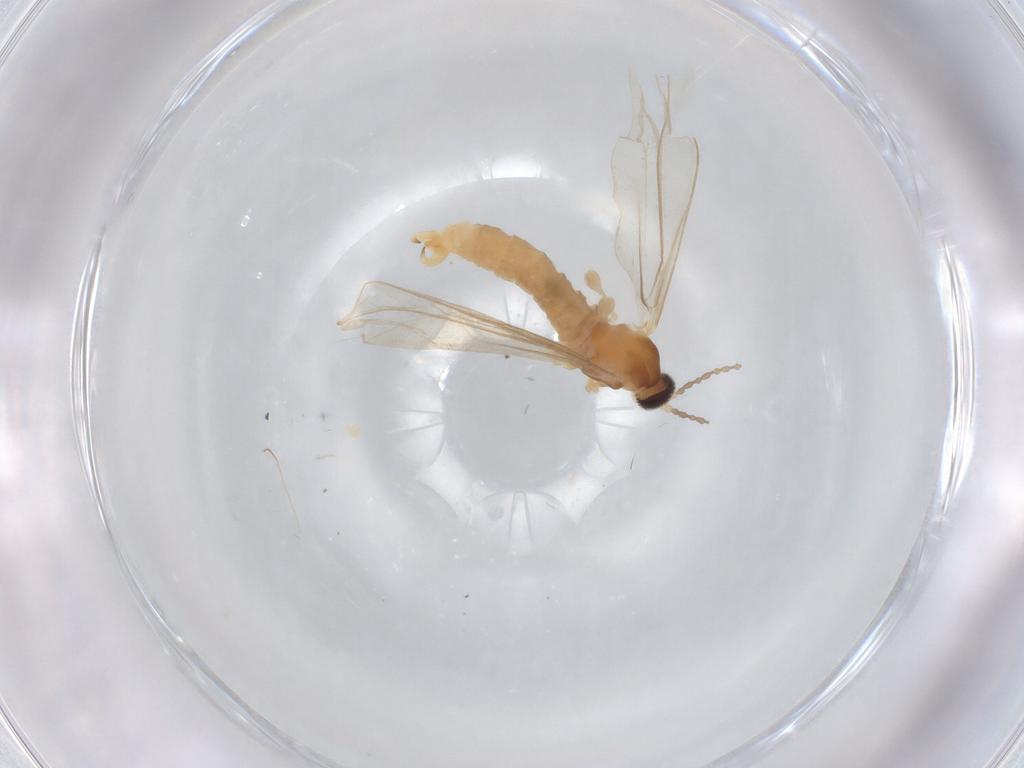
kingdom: Animalia
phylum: Arthropoda
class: Insecta
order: Diptera
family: Cecidomyiidae
